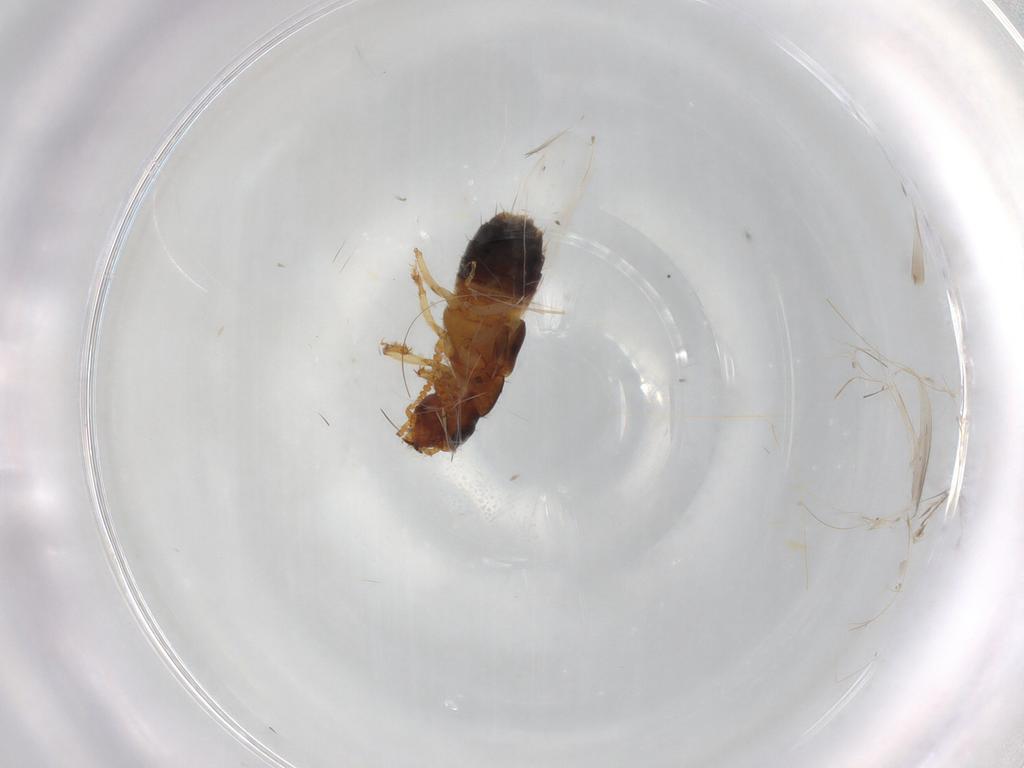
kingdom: Animalia
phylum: Arthropoda
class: Insecta
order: Coleoptera
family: Staphylinidae
